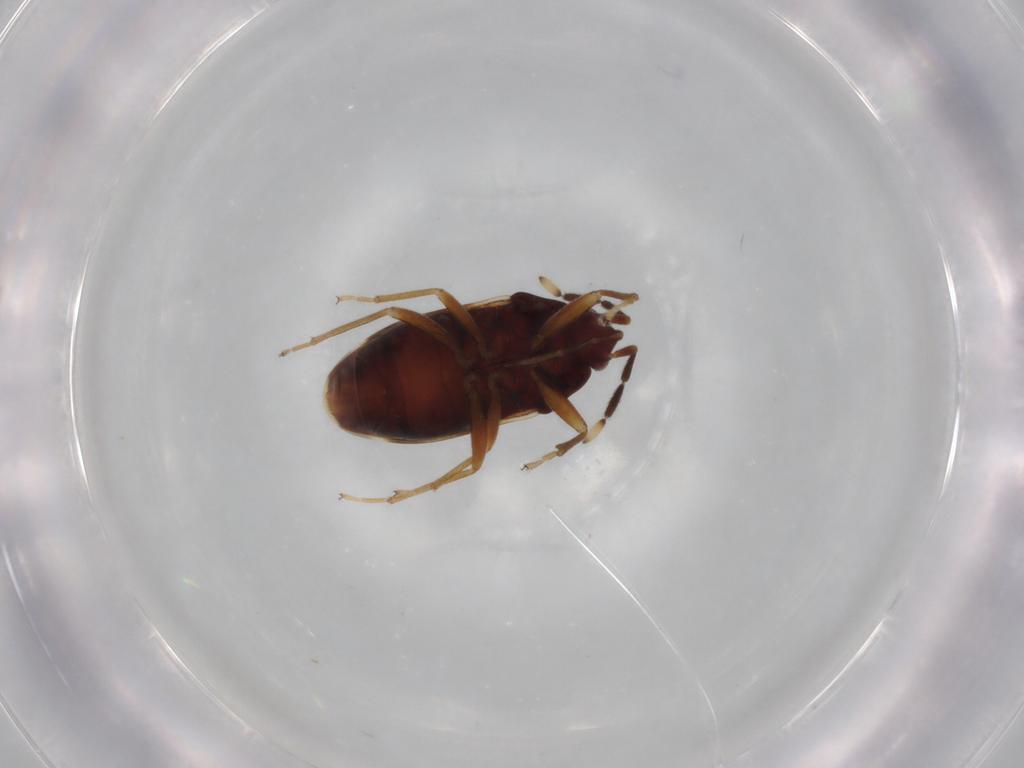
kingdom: Animalia
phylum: Arthropoda
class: Insecta
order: Hemiptera
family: Rhyparochromidae
